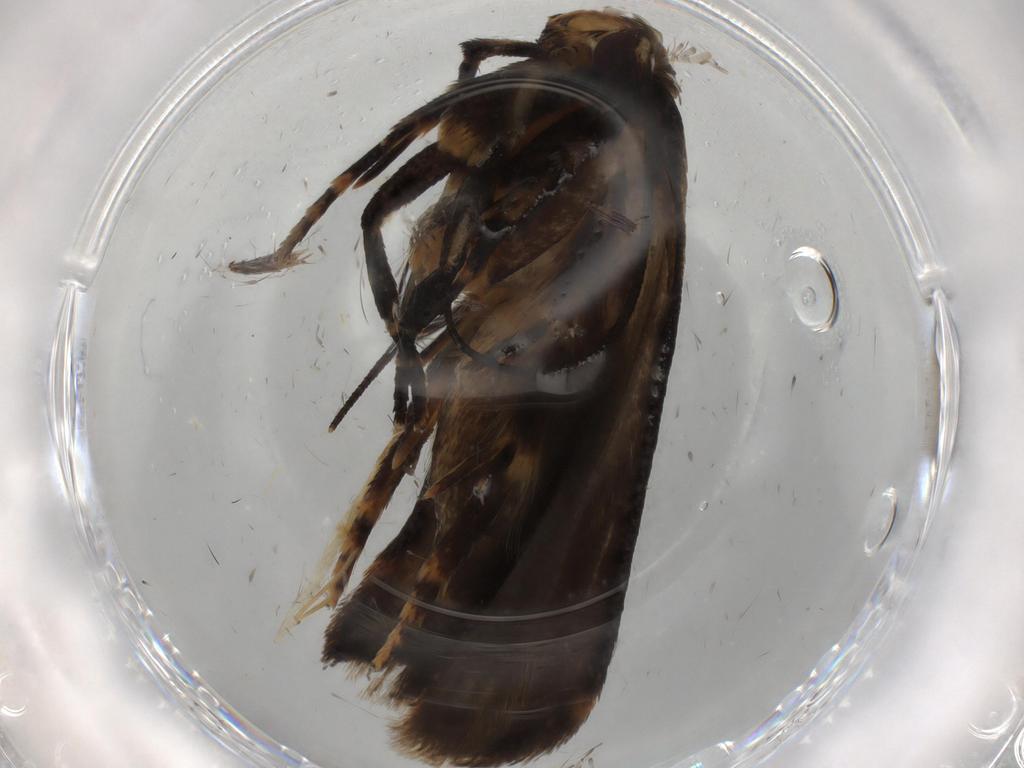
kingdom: Animalia
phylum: Arthropoda
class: Insecta
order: Lepidoptera
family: Tineidae
